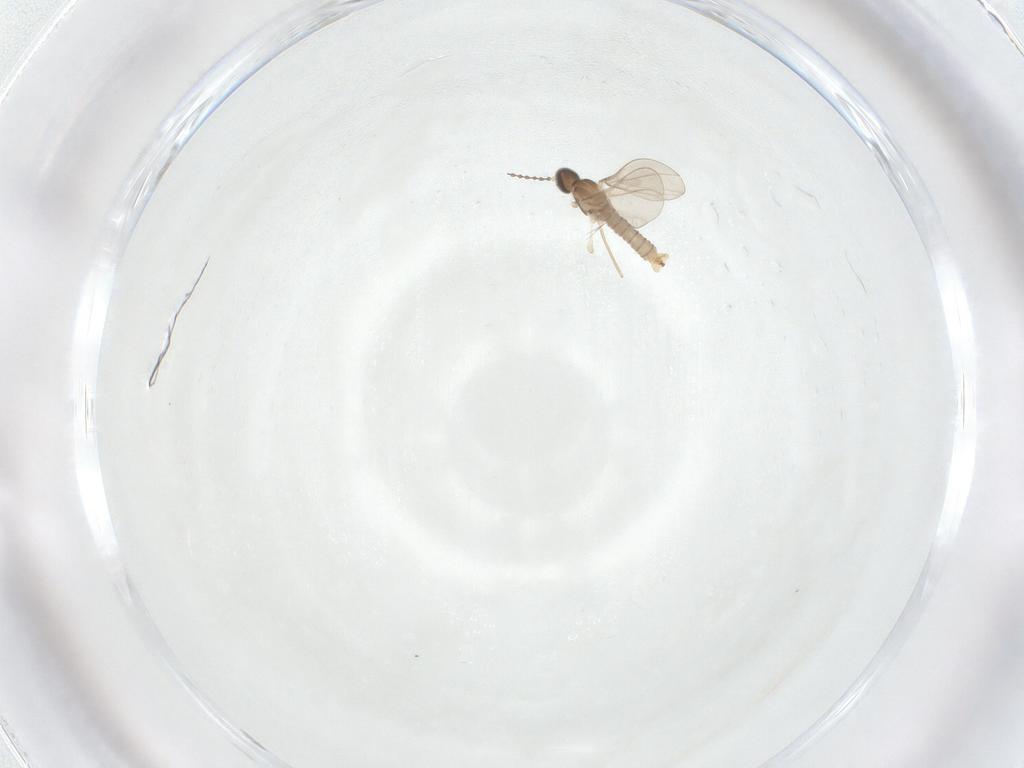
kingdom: Animalia
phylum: Arthropoda
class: Insecta
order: Diptera
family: Cecidomyiidae
